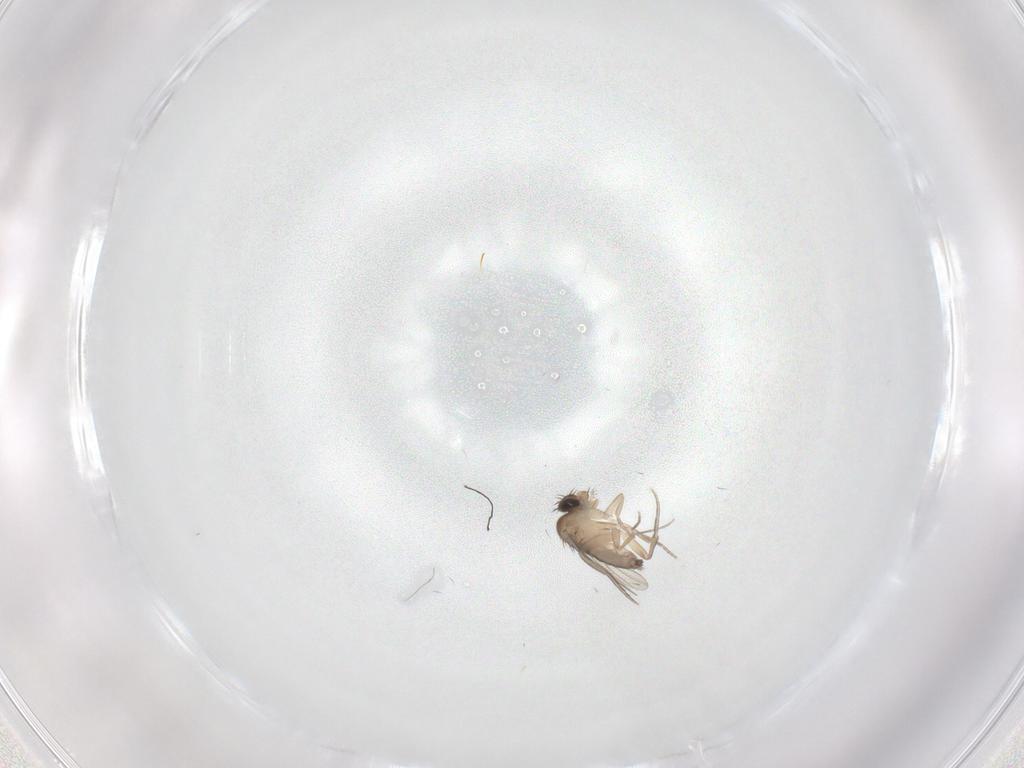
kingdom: Animalia
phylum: Arthropoda
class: Insecta
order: Diptera
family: Phoridae
